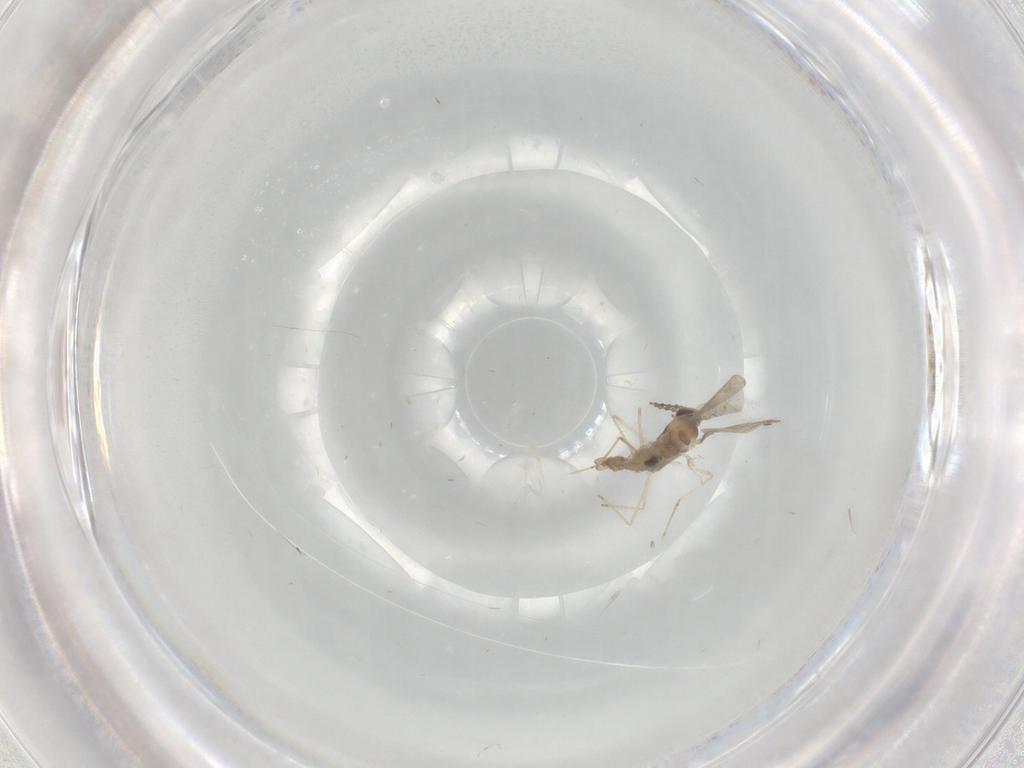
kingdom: Animalia
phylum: Arthropoda
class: Insecta
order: Diptera
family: Cecidomyiidae
